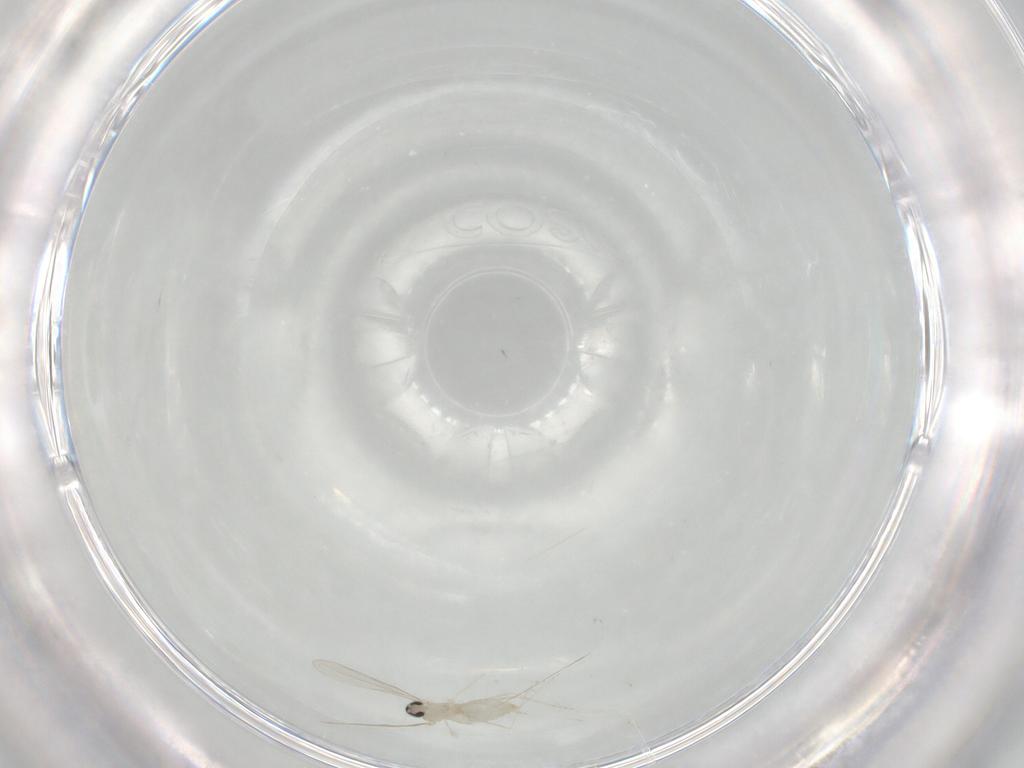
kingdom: Animalia
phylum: Arthropoda
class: Insecta
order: Diptera
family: Cecidomyiidae
